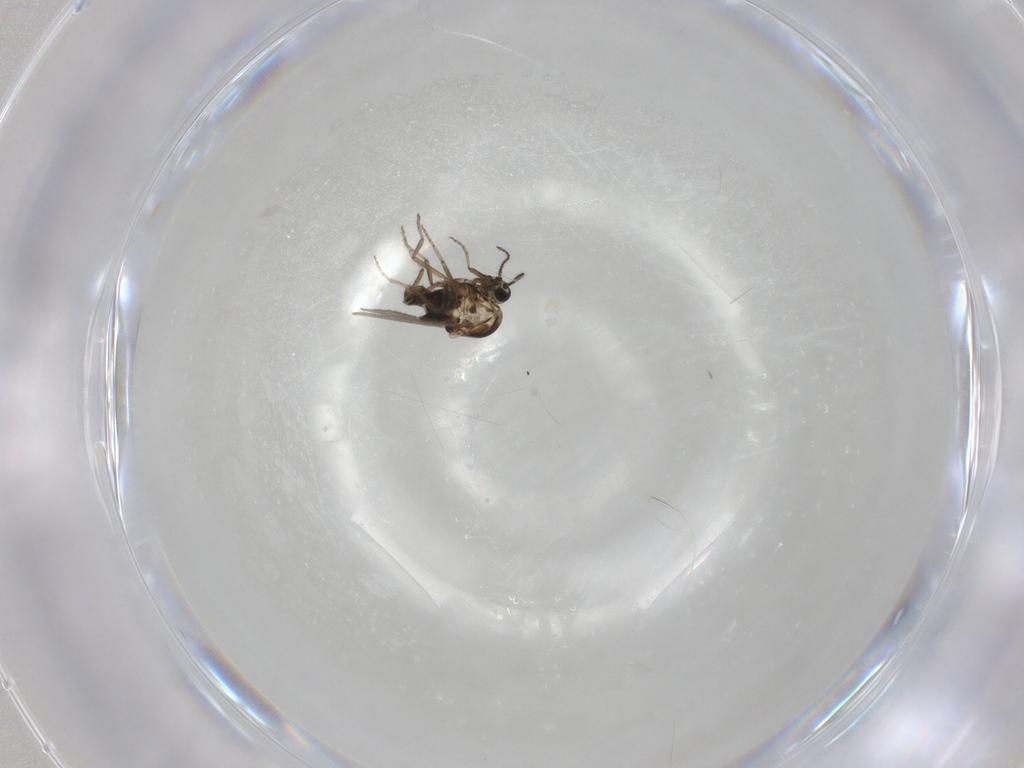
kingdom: Animalia
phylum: Arthropoda
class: Insecta
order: Diptera
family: Ceratopogonidae
